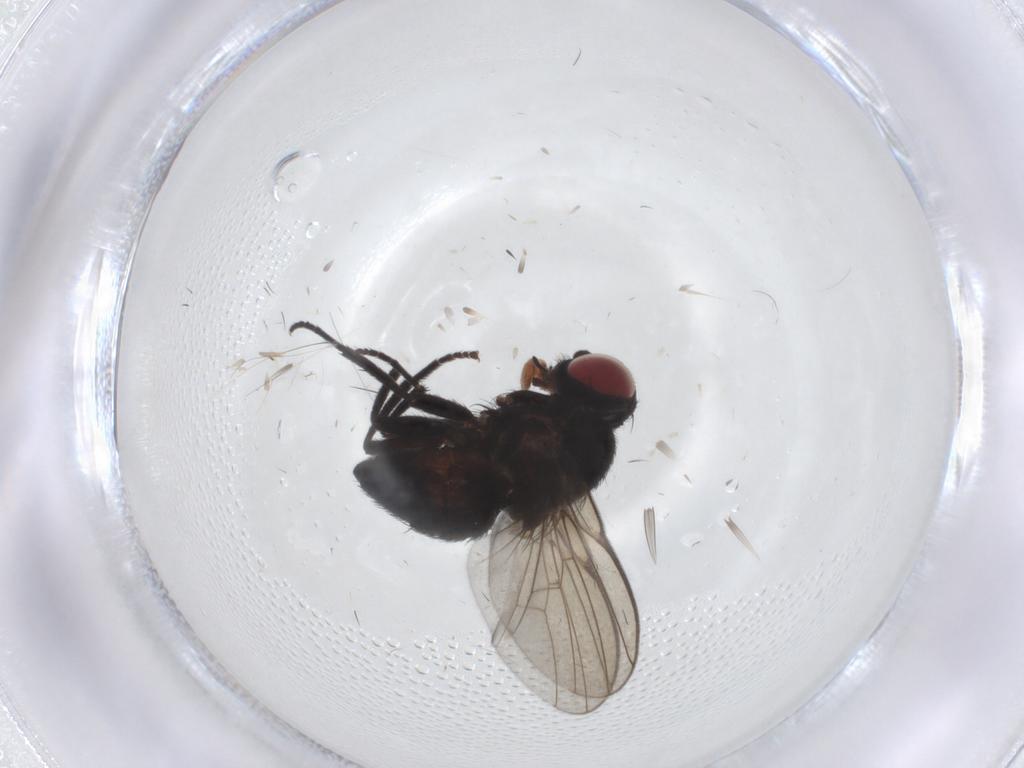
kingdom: Animalia
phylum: Arthropoda
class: Insecta
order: Diptera
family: Agromyzidae
